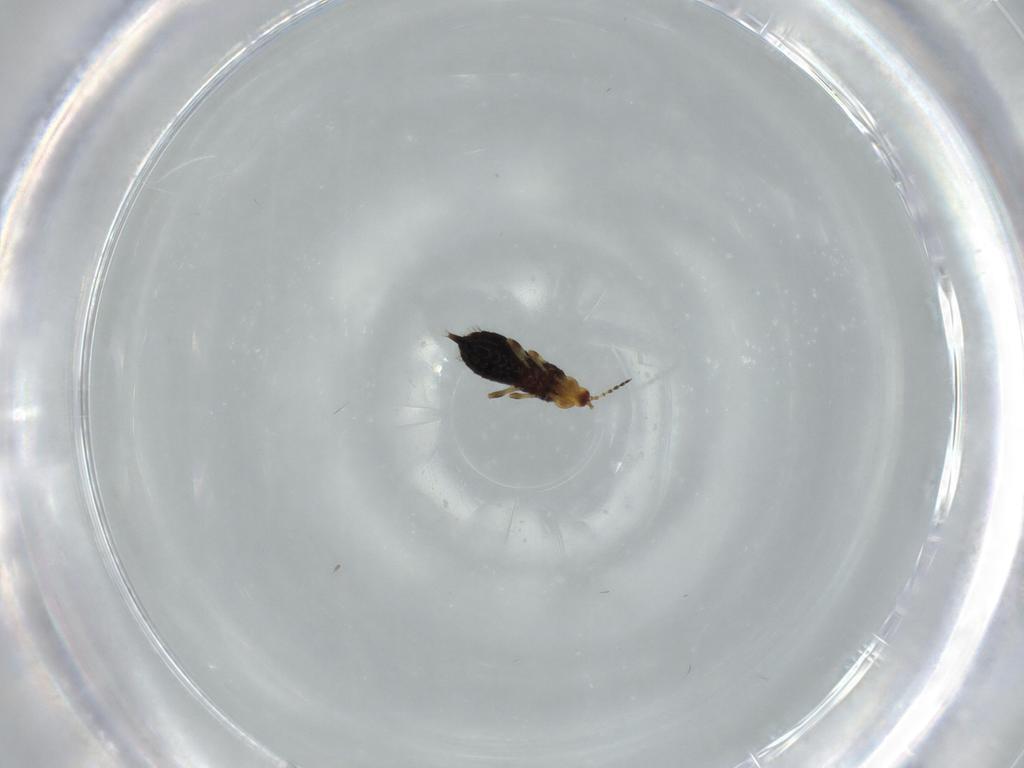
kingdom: Animalia
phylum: Arthropoda
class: Insecta
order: Thysanoptera
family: Phlaeothripidae
